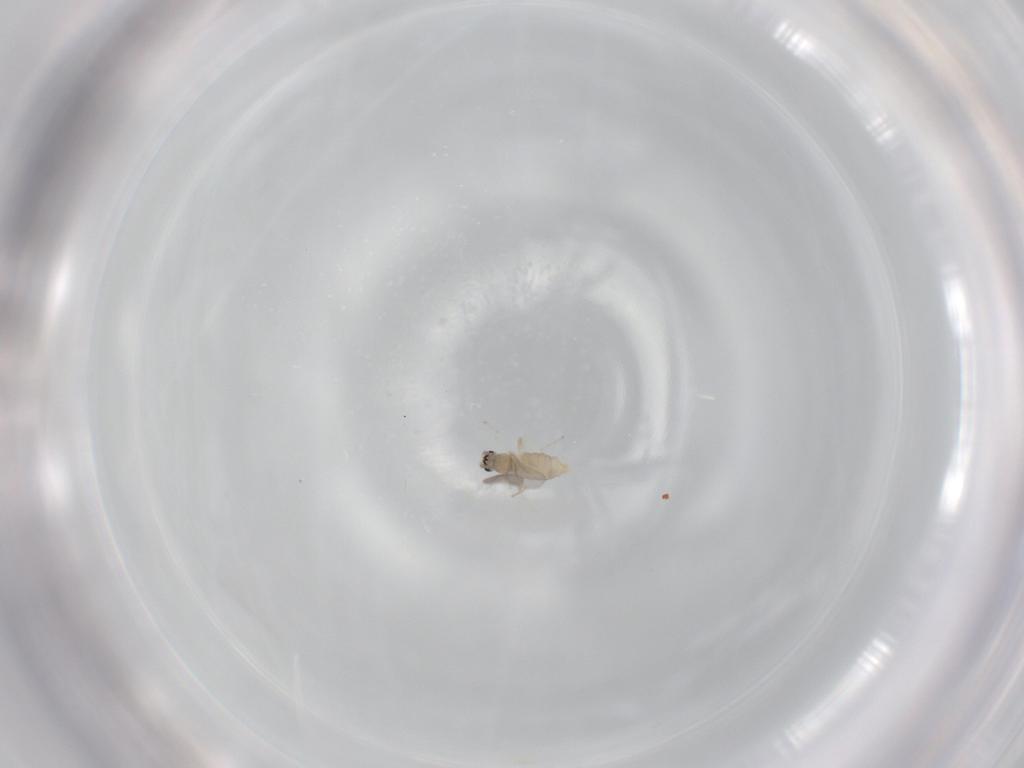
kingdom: Animalia
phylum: Arthropoda
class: Insecta
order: Diptera
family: Cecidomyiidae
